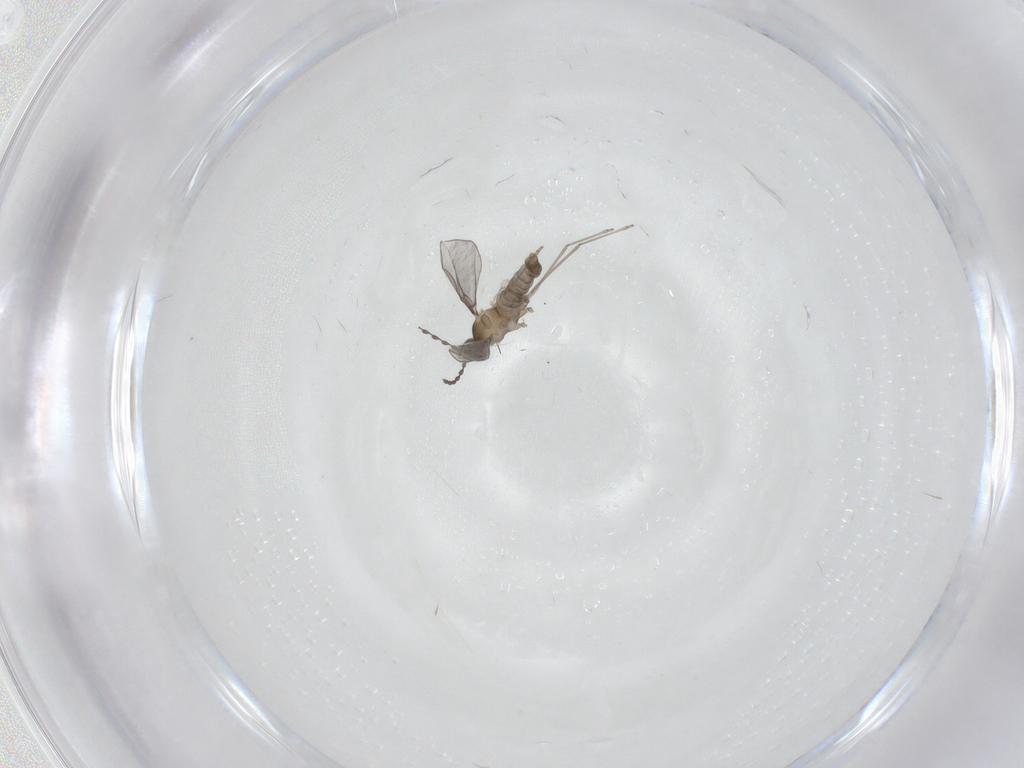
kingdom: Animalia
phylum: Arthropoda
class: Insecta
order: Diptera
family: Cecidomyiidae
